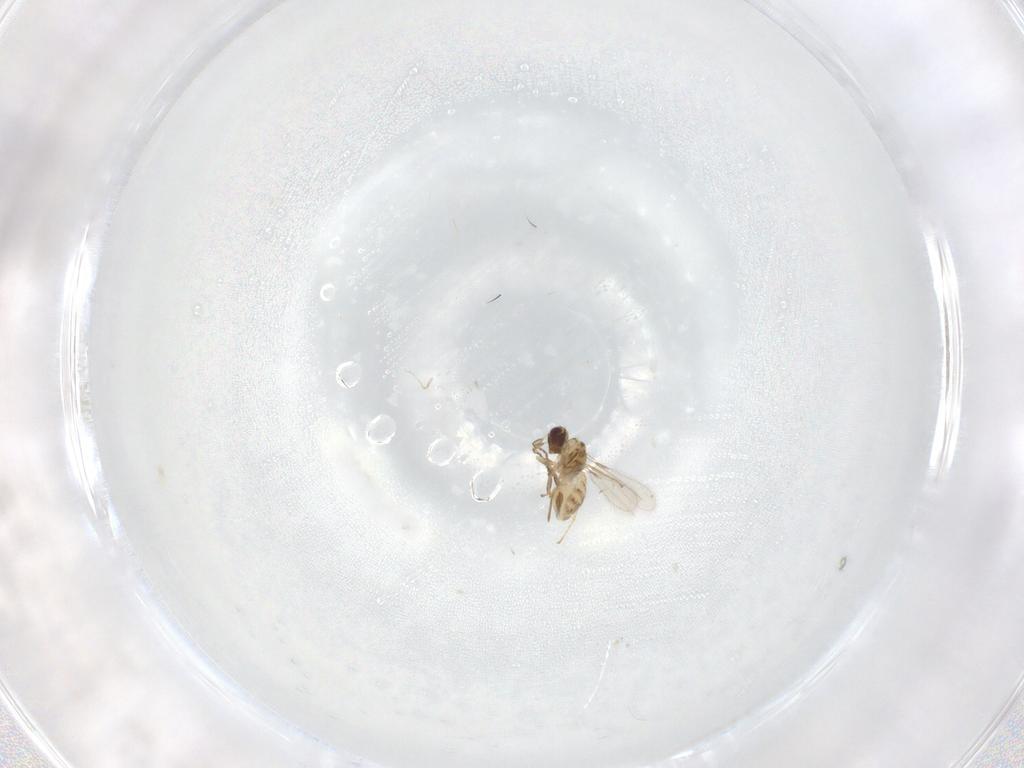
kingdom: Animalia
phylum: Arthropoda
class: Insecta
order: Hymenoptera
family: Mymaridae
